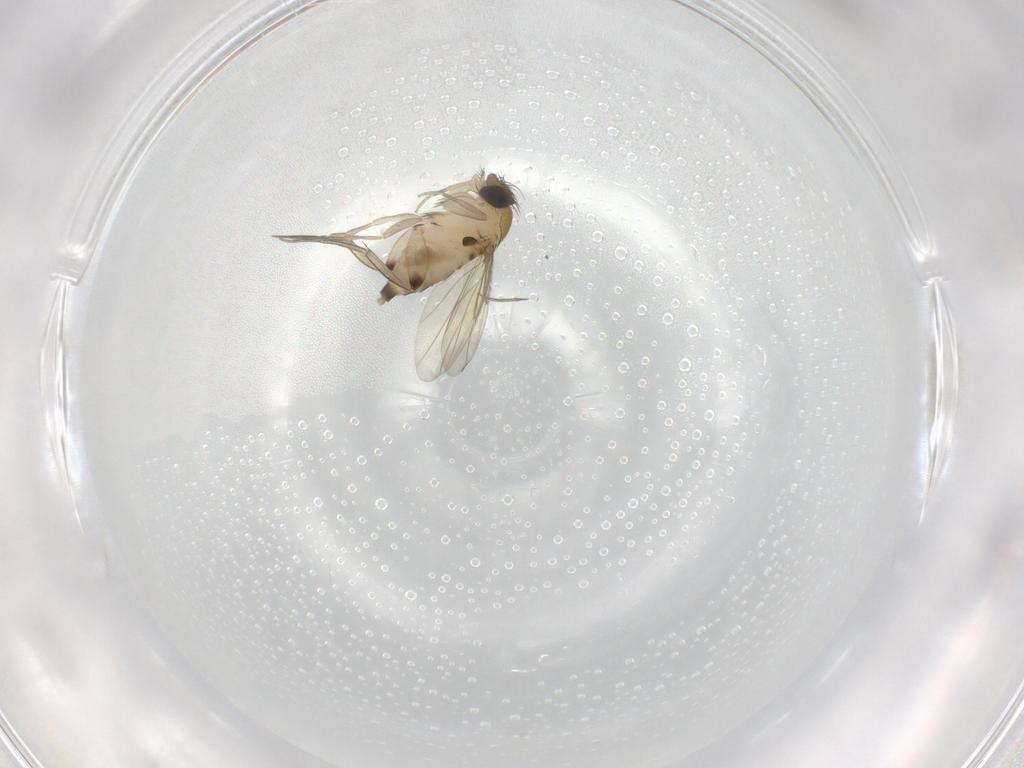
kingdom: Animalia
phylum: Arthropoda
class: Insecta
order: Diptera
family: Phoridae
